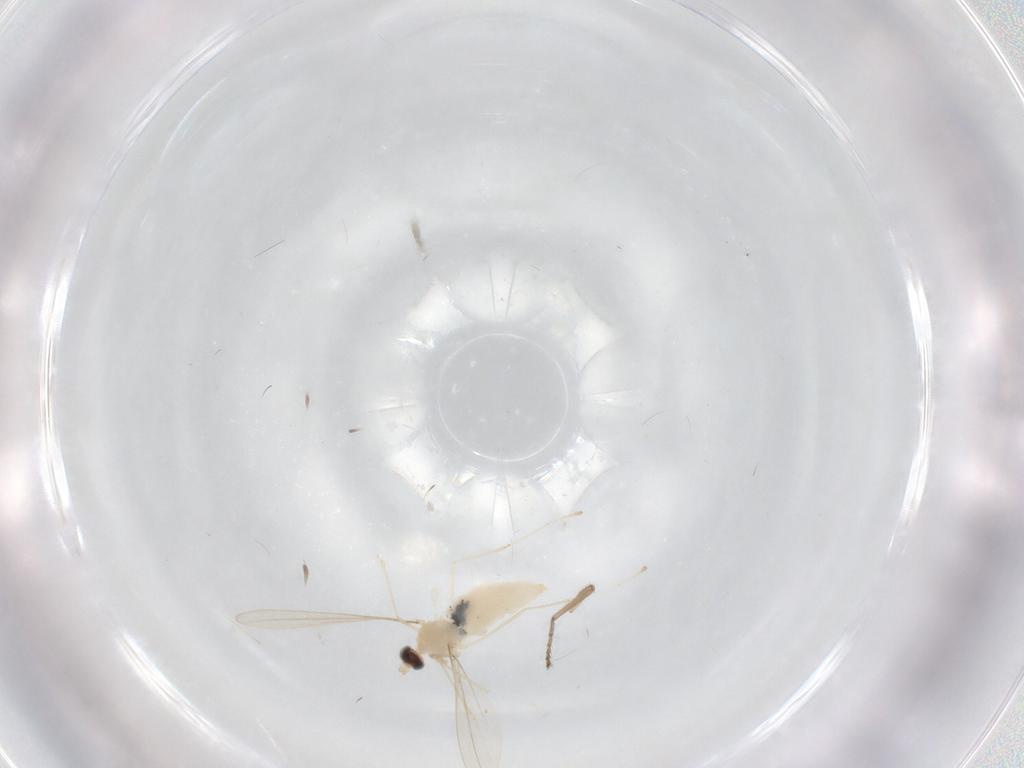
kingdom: Animalia
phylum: Arthropoda
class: Insecta
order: Diptera
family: Cecidomyiidae
